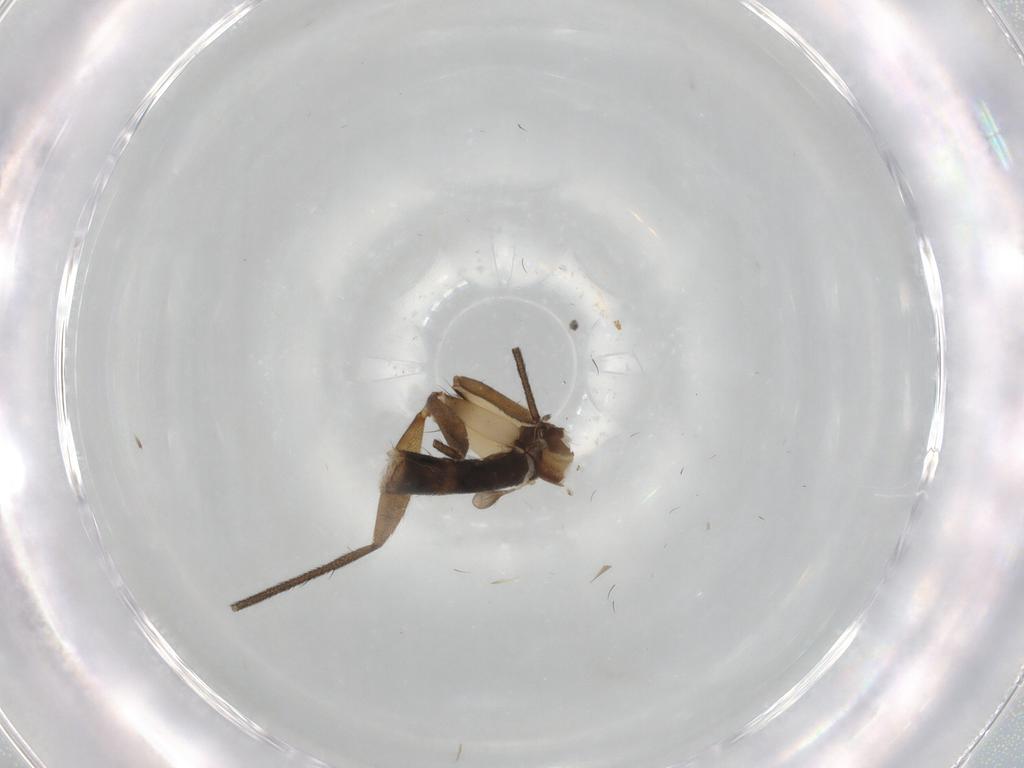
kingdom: Animalia
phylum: Arthropoda
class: Insecta
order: Diptera
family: Ditomyiidae
